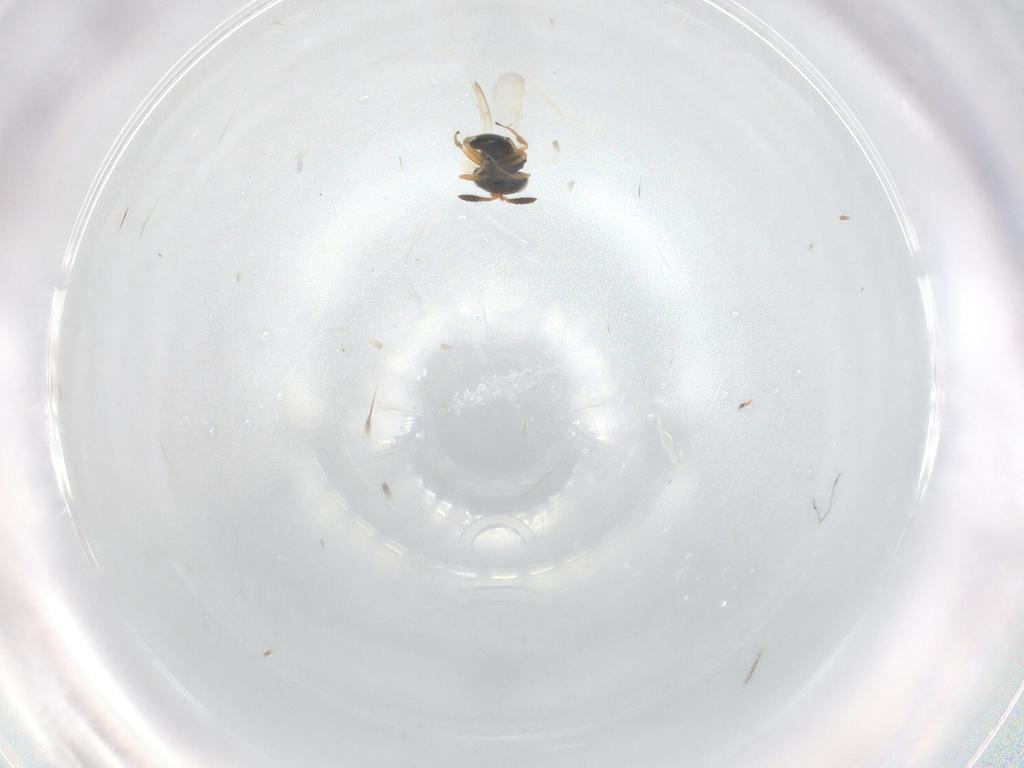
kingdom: Animalia
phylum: Arthropoda
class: Insecta
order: Hymenoptera
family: Scelionidae
